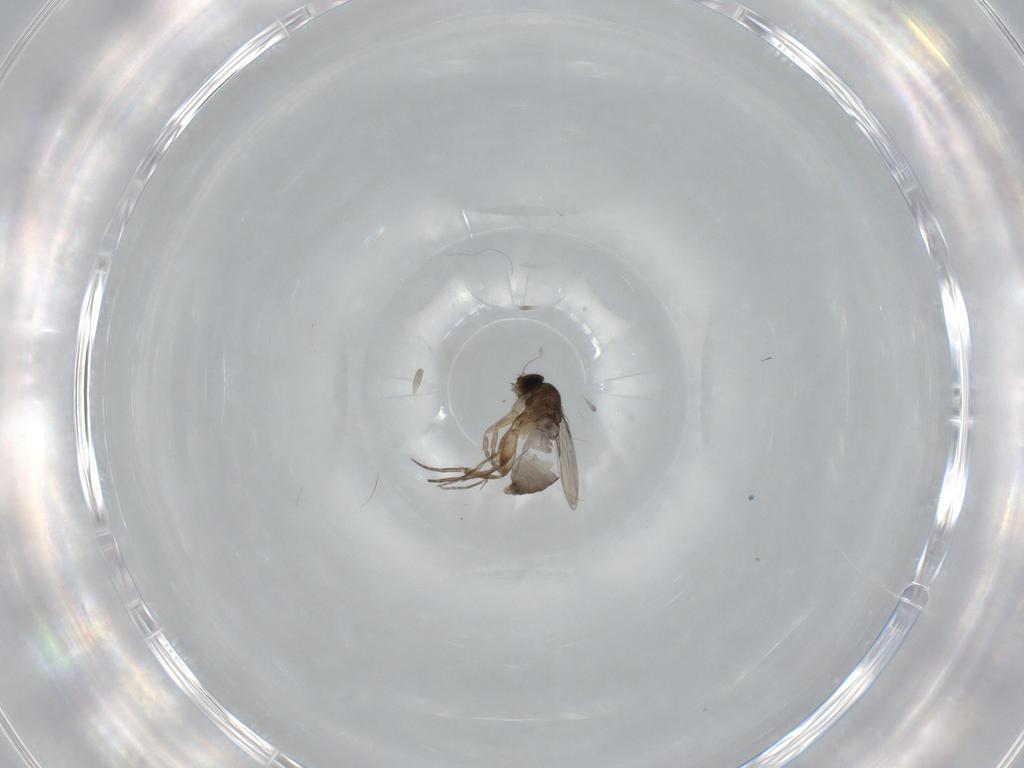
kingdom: Animalia
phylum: Arthropoda
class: Insecta
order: Diptera
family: Phoridae
